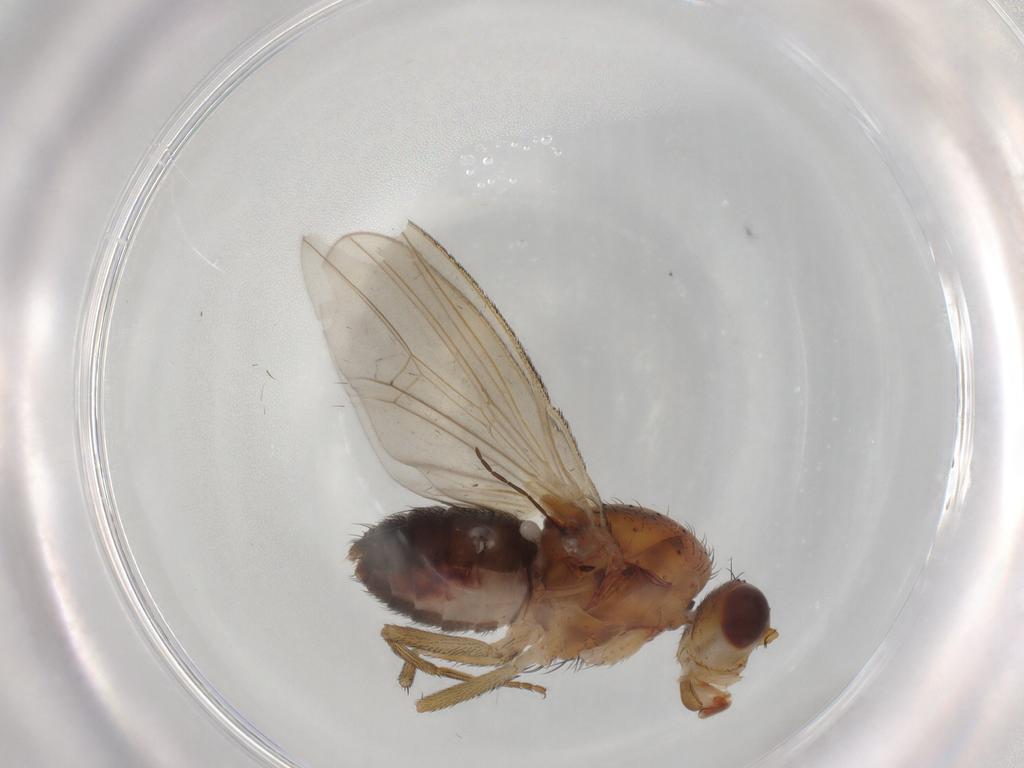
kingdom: Animalia
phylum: Arthropoda
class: Insecta
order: Diptera
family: Heleomyzidae
